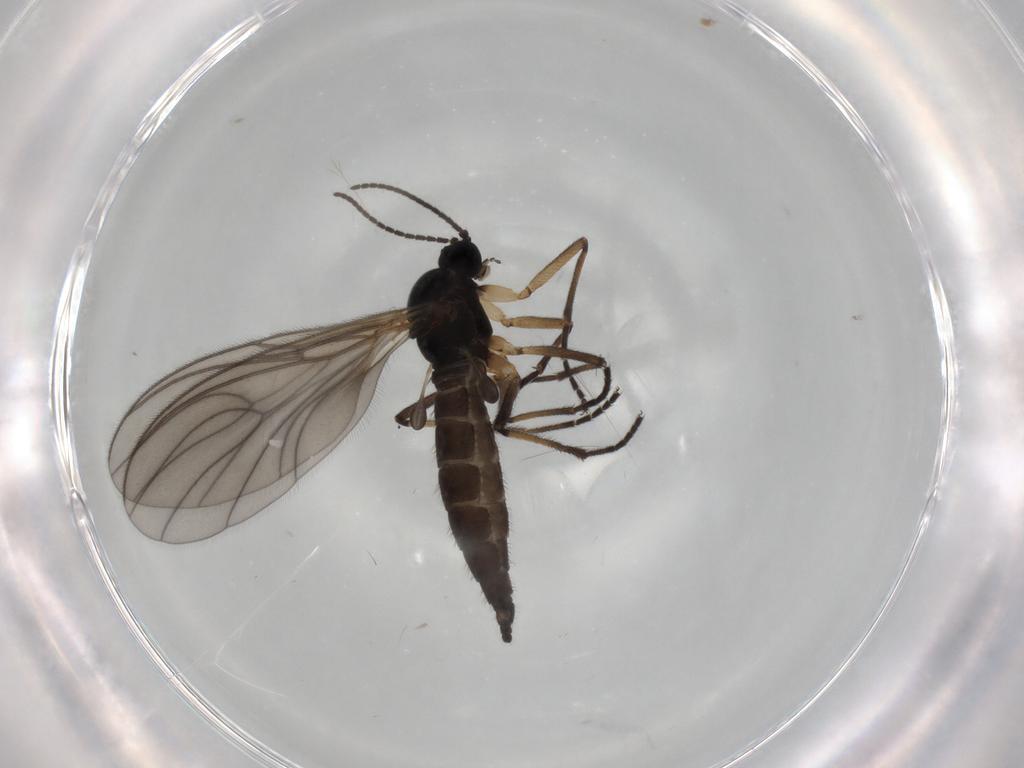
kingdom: Animalia
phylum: Arthropoda
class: Insecta
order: Diptera
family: Sciaridae
